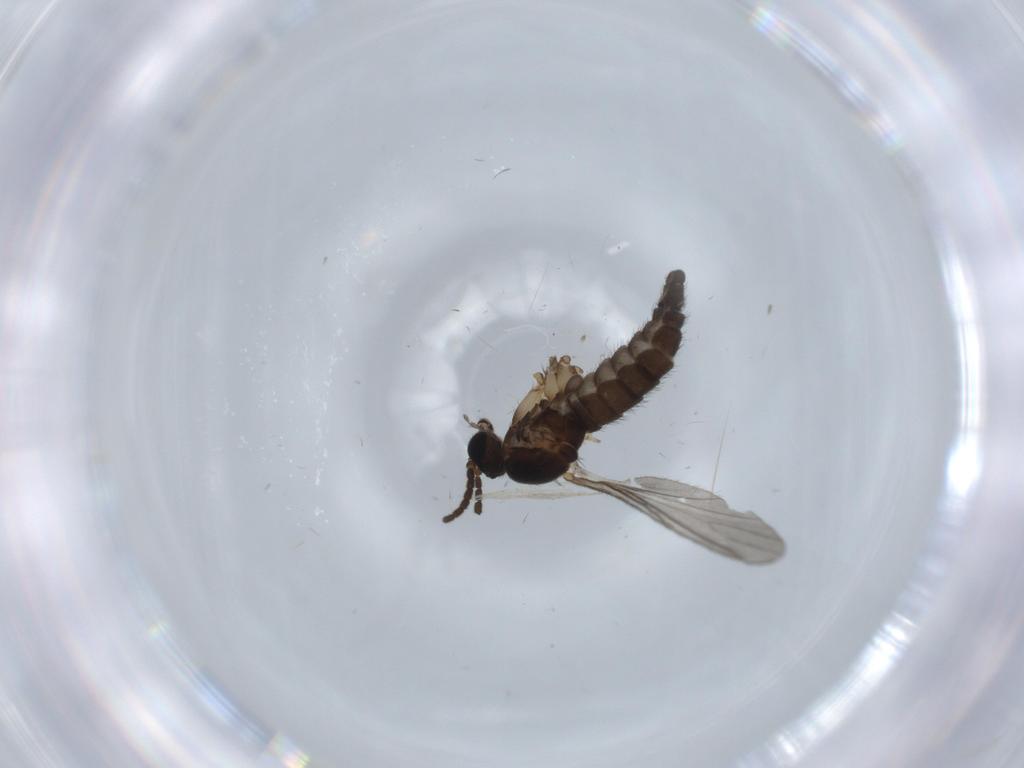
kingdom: Animalia
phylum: Arthropoda
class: Insecta
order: Diptera
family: Sciaridae
